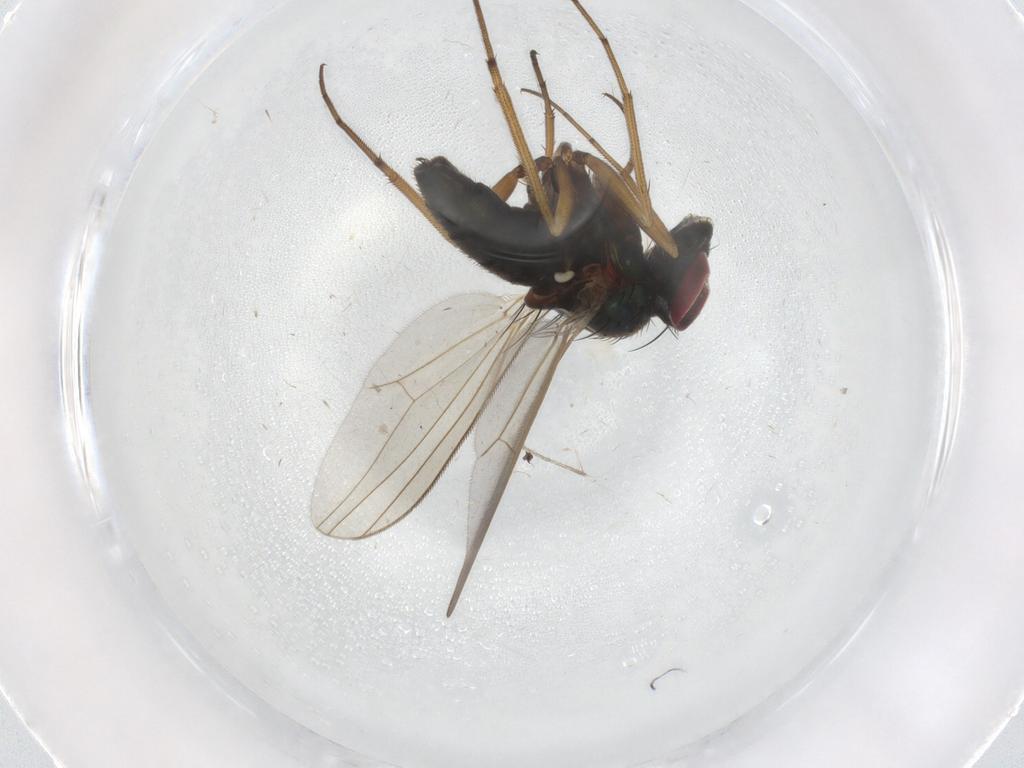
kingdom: Animalia
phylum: Arthropoda
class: Insecta
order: Diptera
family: Dolichopodidae
